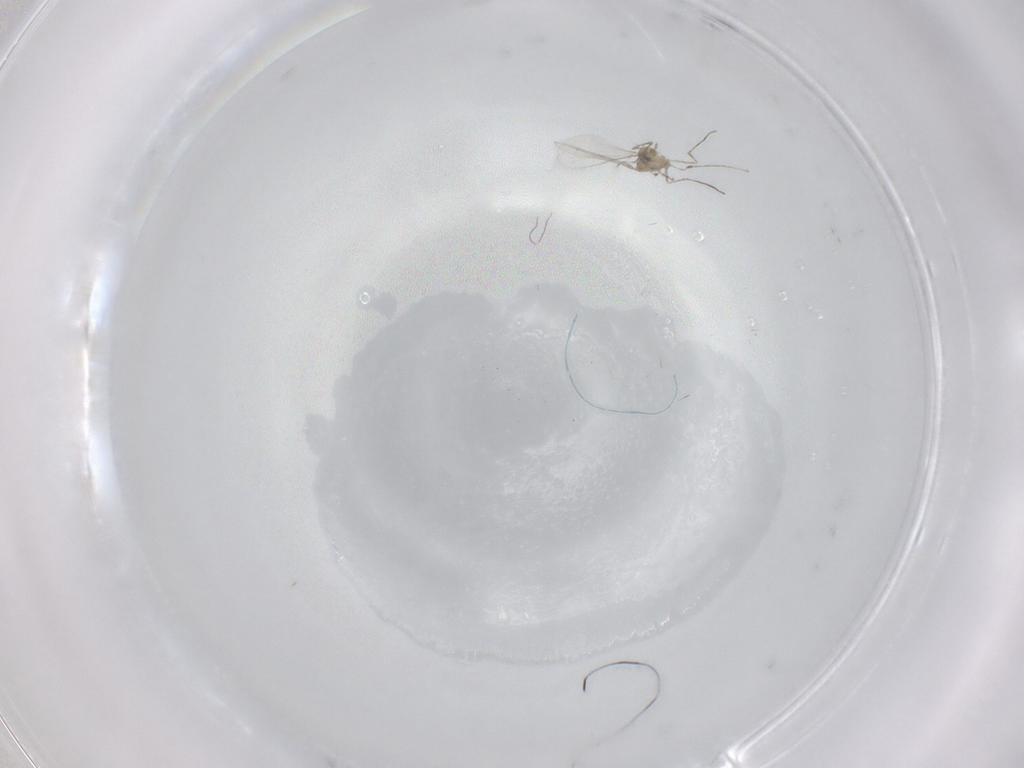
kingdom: Animalia
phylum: Arthropoda
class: Insecta
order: Diptera
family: Cecidomyiidae
